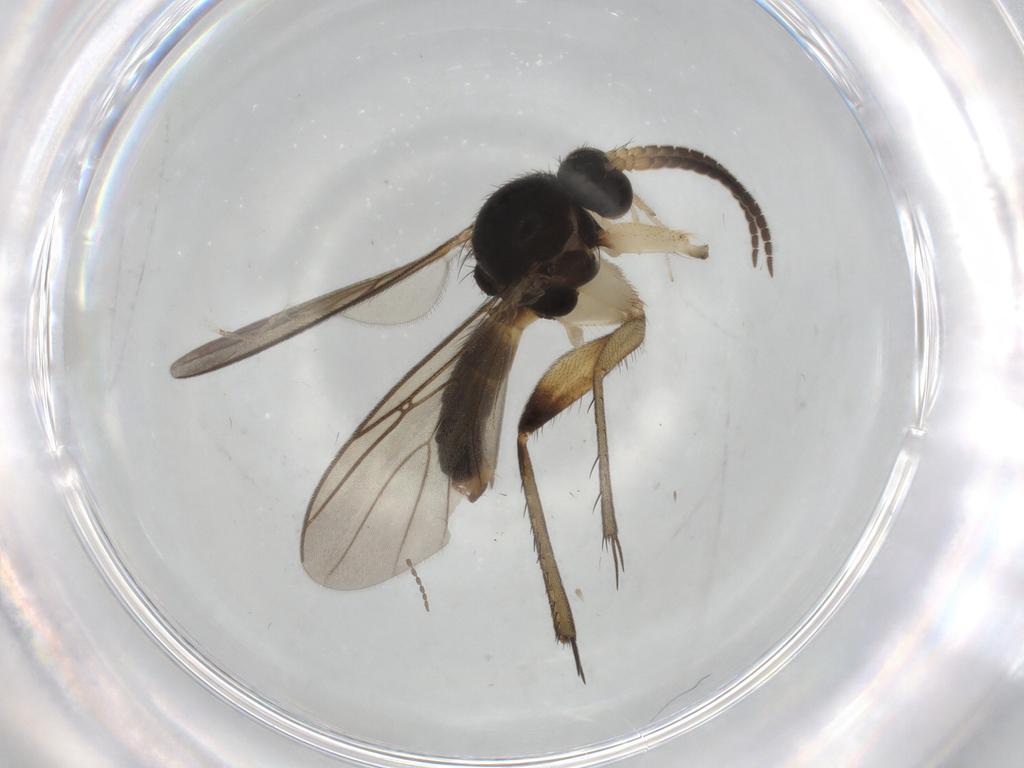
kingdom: Animalia
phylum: Arthropoda
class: Insecta
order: Diptera
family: Cecidomyiidae
